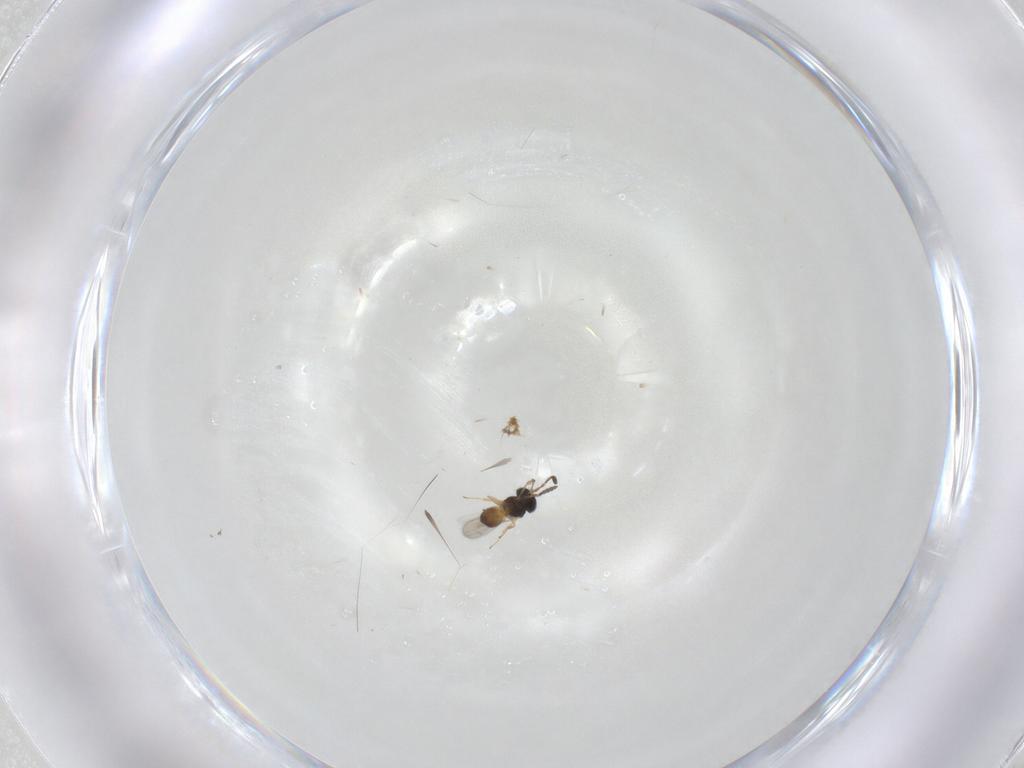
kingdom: Animalia
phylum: Arthropoda
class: Insecta
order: Hymenoptera
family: Scelionidae
